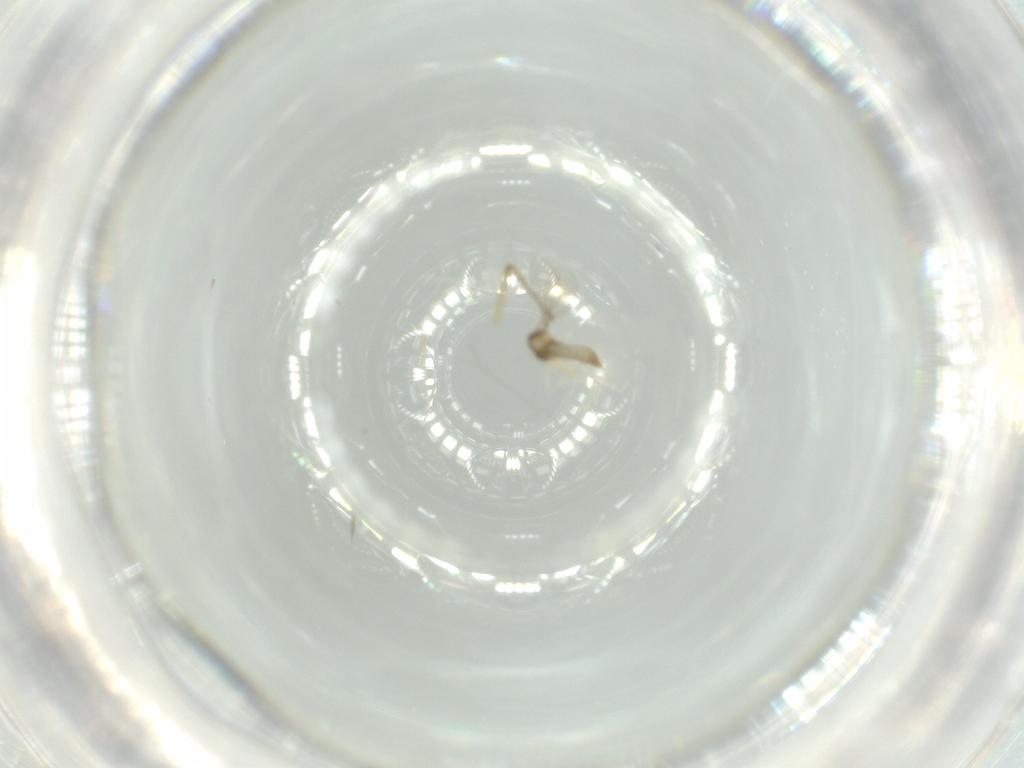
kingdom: Animalia
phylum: Arthropoda
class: Insecta
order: Diptera
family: Chironomidae
